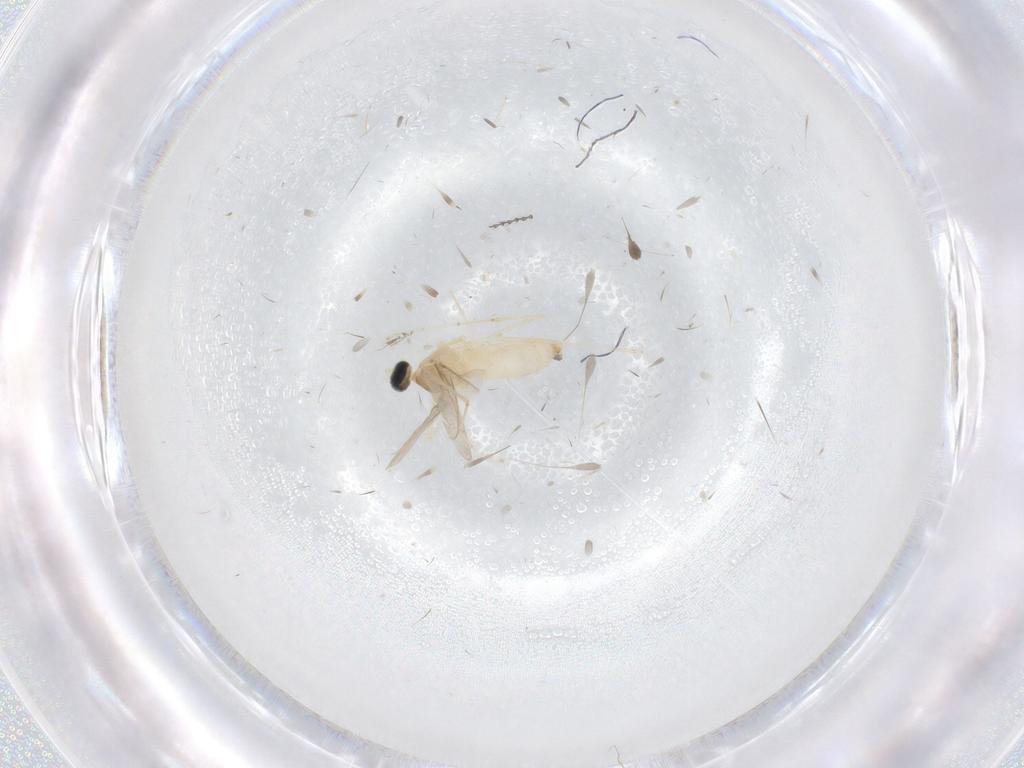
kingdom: Animalia
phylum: Arthropoda
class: Insecta
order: Diptera
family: Cecidomyiidae
